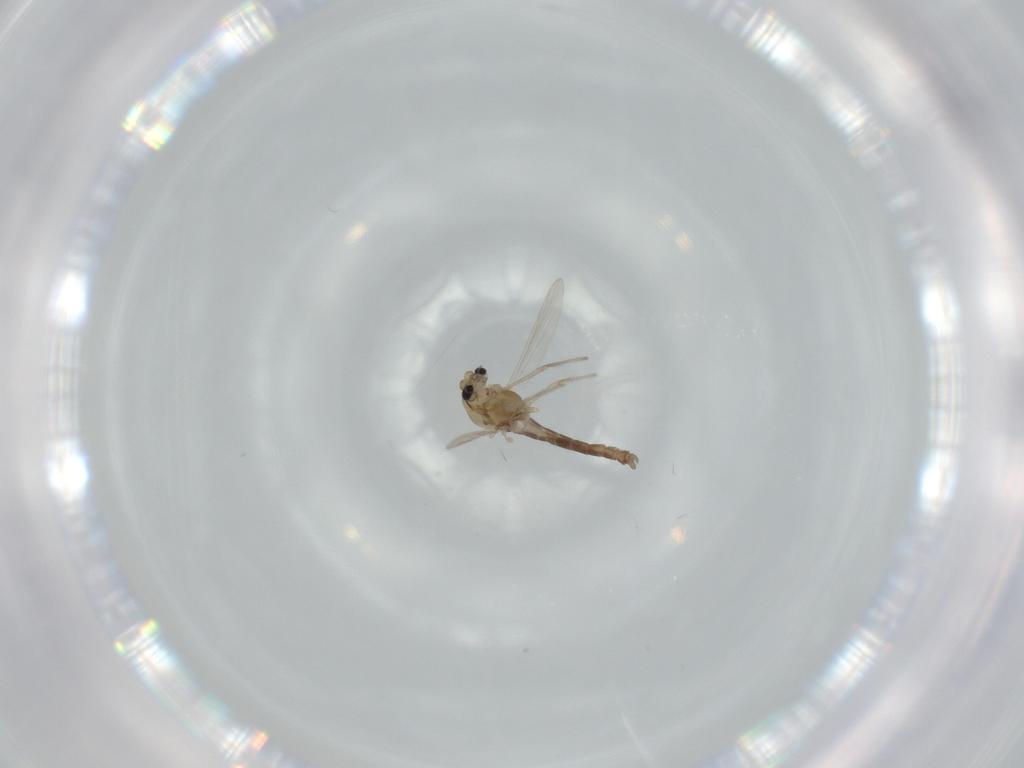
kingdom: Animalia
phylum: Arthropoda
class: Insecta
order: Diptera
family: Chironomidae
